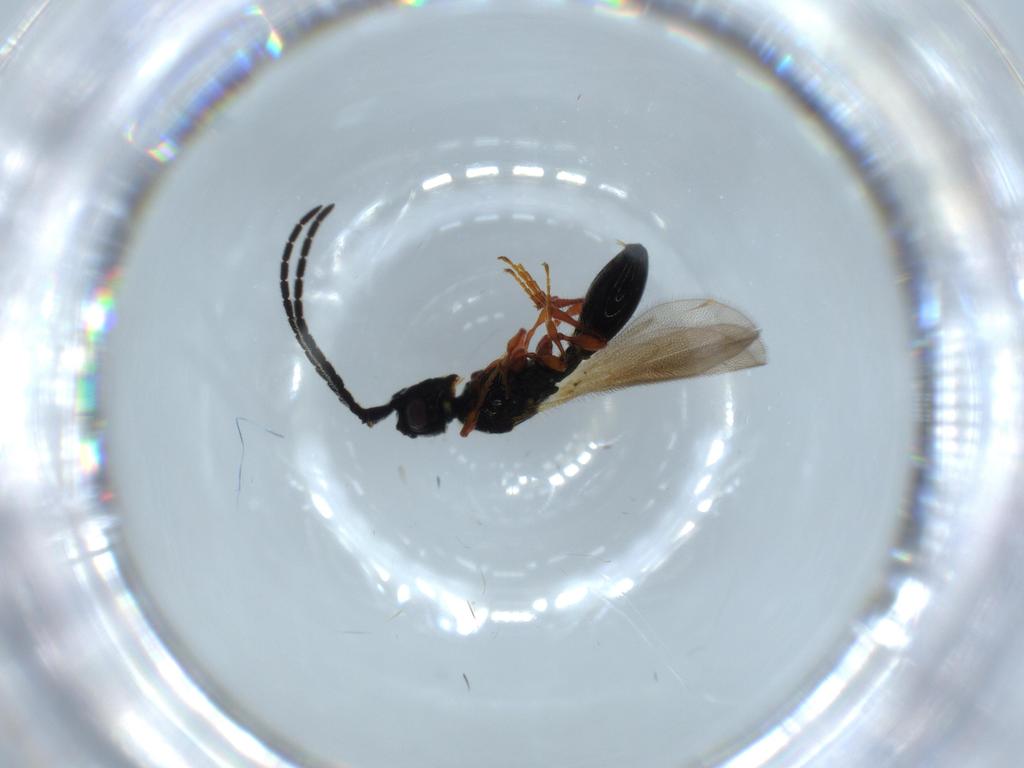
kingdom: Animalia
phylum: Arthropoda
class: Insecta
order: Hymenoptera
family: Diapriidae
